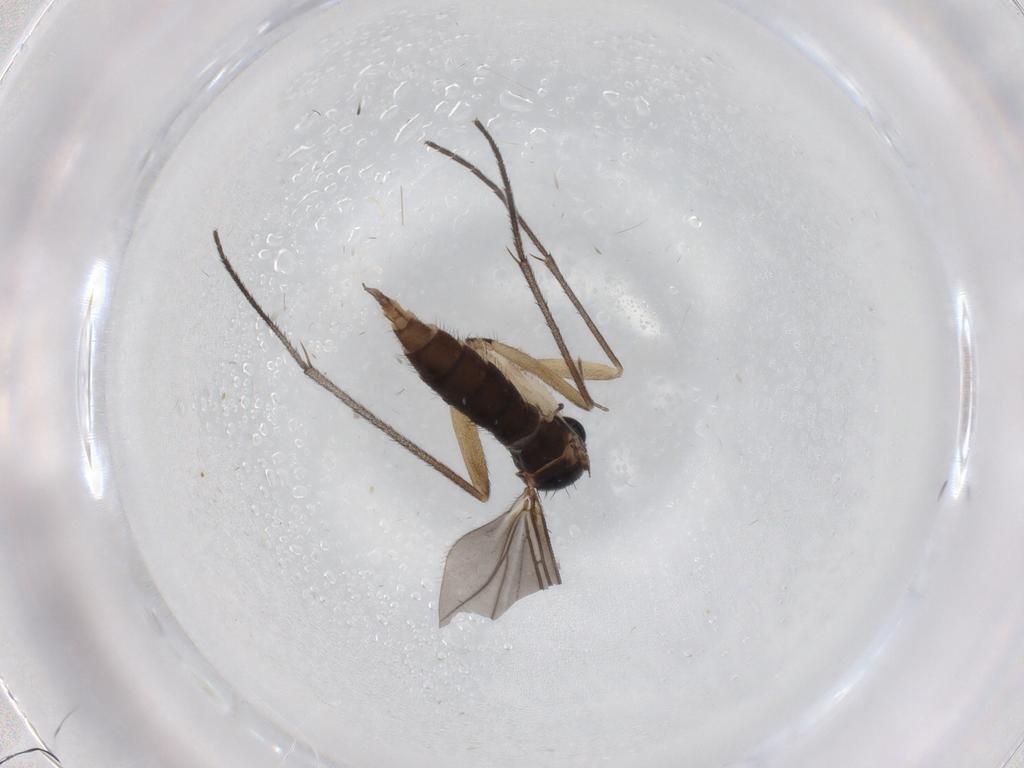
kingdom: Animalia
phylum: Arthropoda
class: Insecta
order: Diptera
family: Sciaridae
